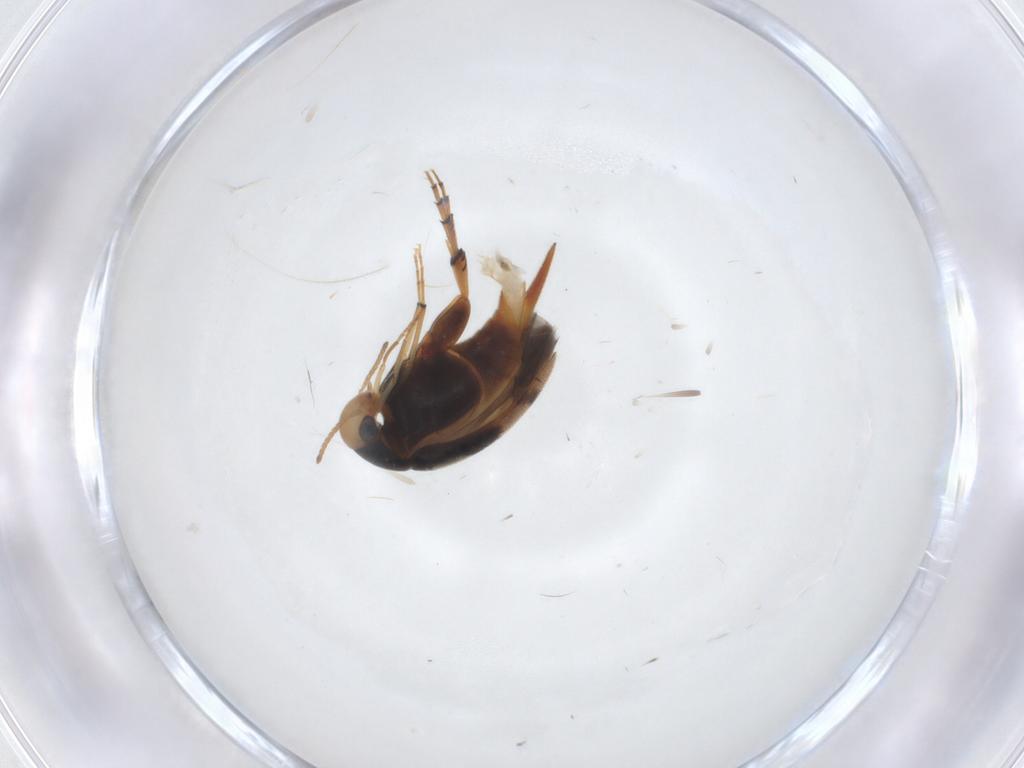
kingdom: Animalia
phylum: Arthropoda
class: Insecta
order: Coleoptera
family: Mordellidae
